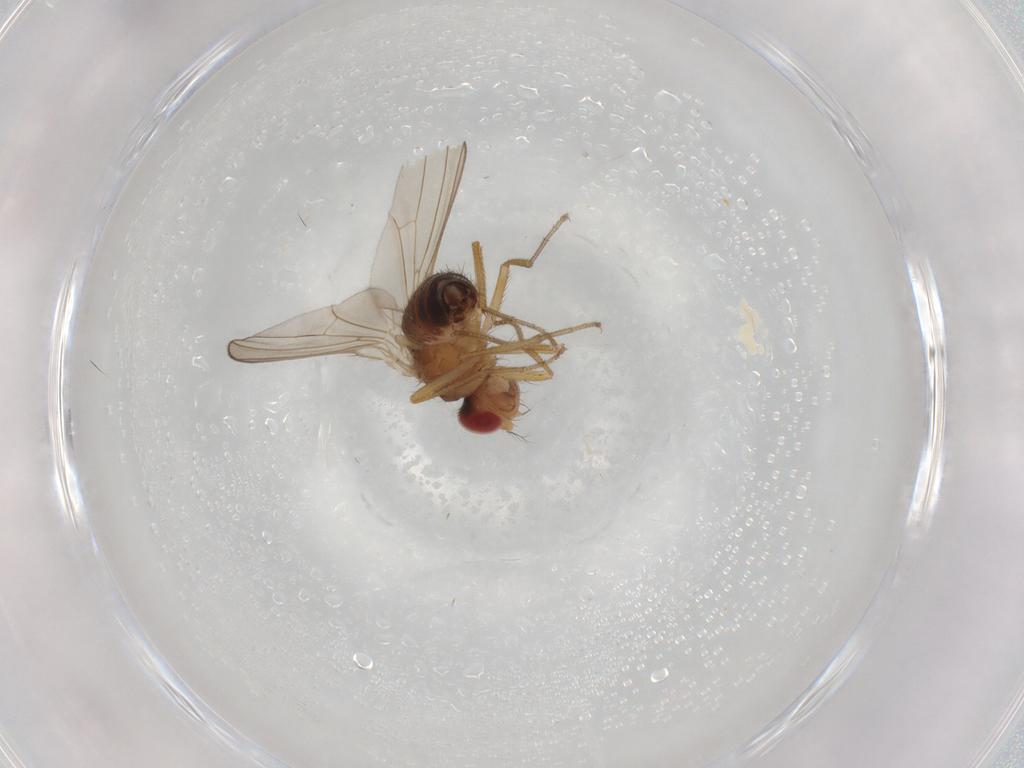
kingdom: Animalia
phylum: Arthropoda
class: Insecta
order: Diptera
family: Drosophilidae
